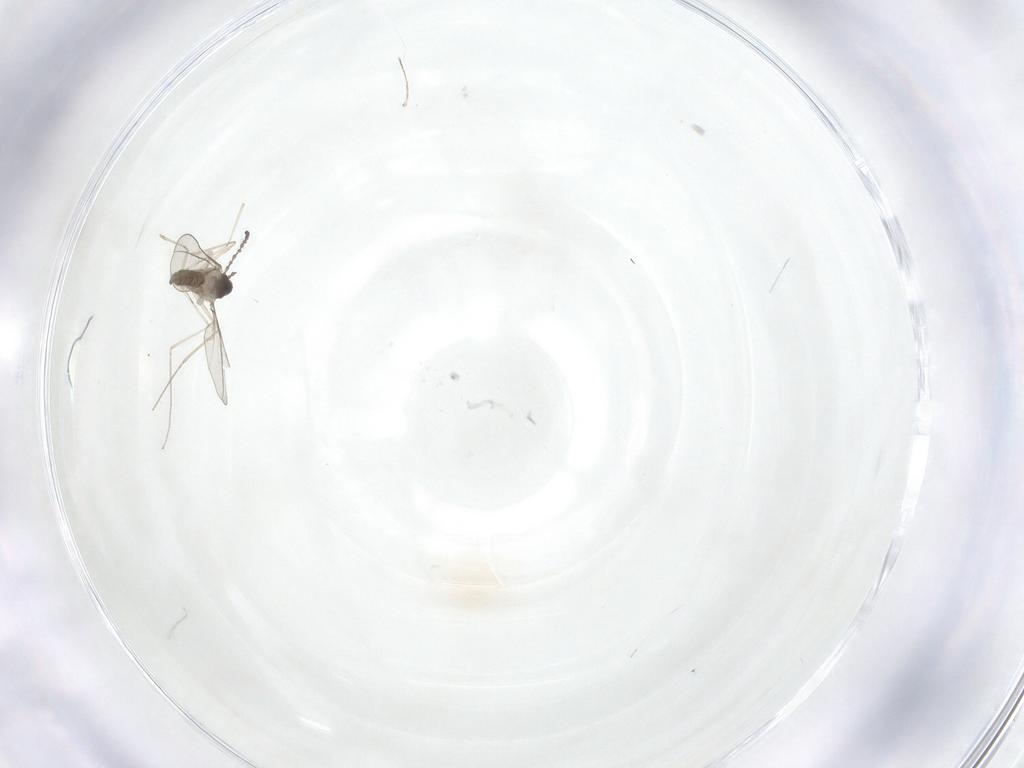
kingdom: Animalia
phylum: Arthropoda
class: Insecta
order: Diptera
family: Cecidomyiidae
